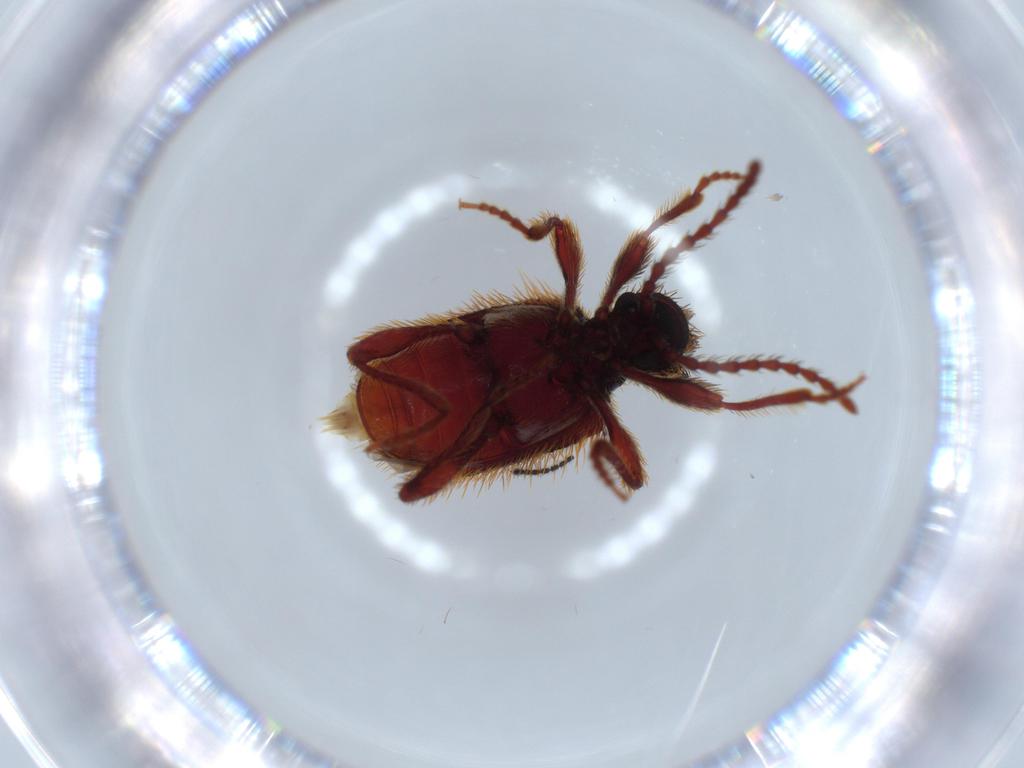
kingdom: Animalia
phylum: Arthropoda
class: Insecta
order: Coleoptera
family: Ptinidae
